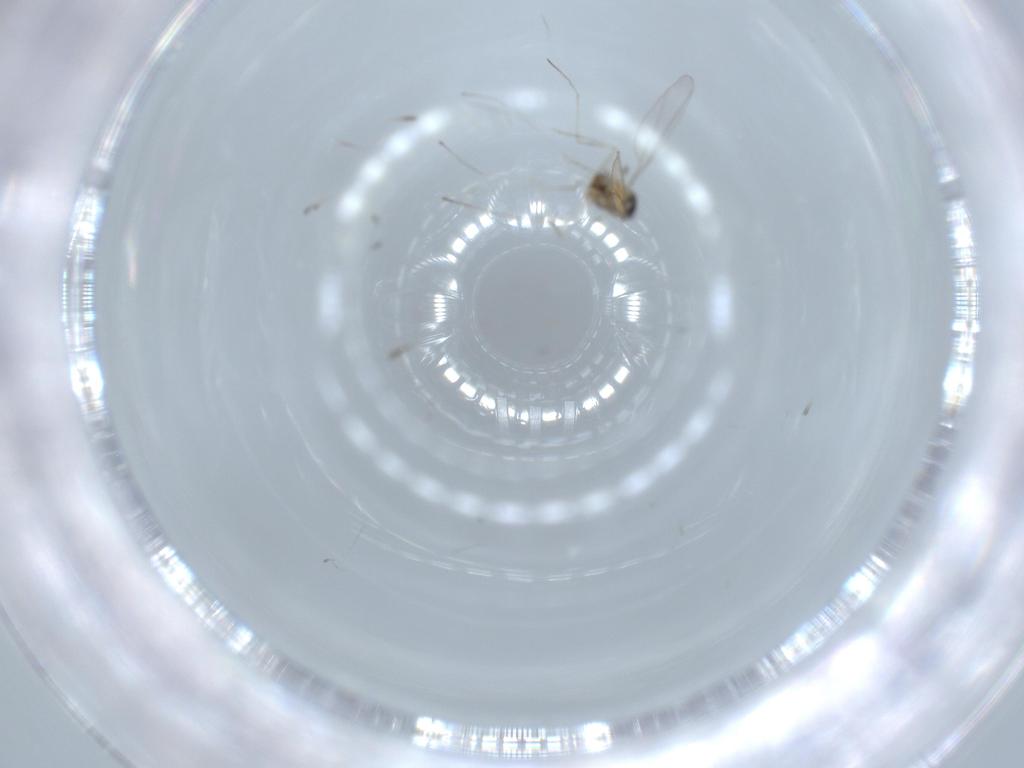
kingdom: Animalia
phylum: Arthropoda
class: Insecta
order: Diptera
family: Cecidomyiidae
